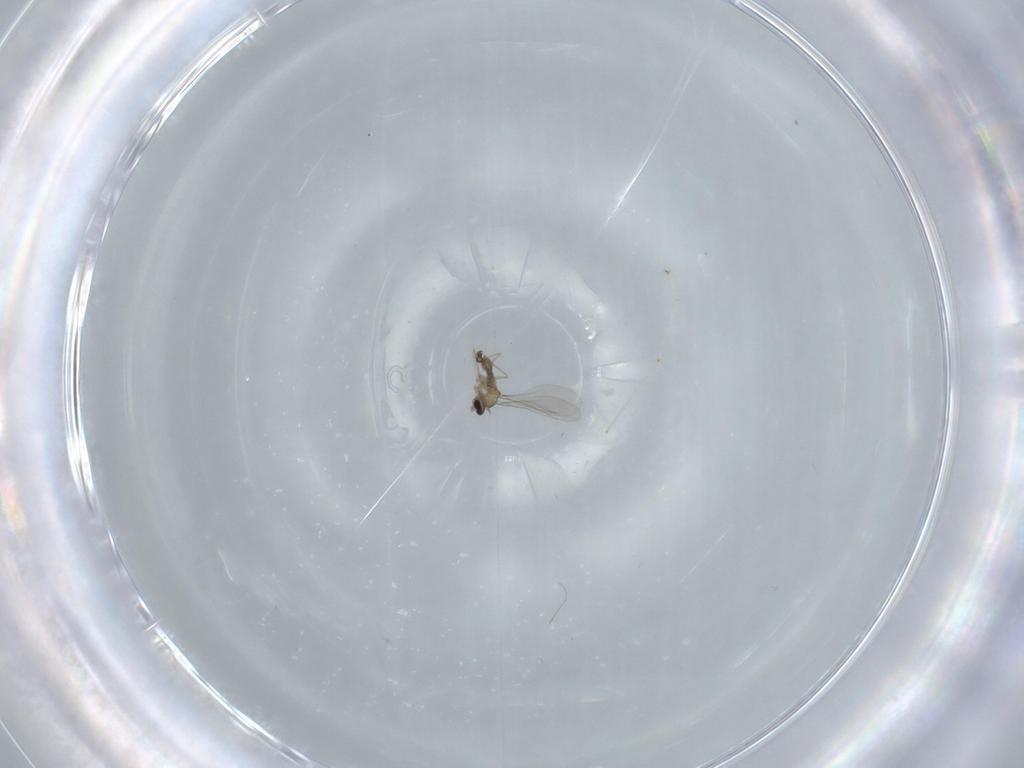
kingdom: Animalia
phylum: Arthropoda
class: Insecta
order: Diptera
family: Cecidomyiidae
